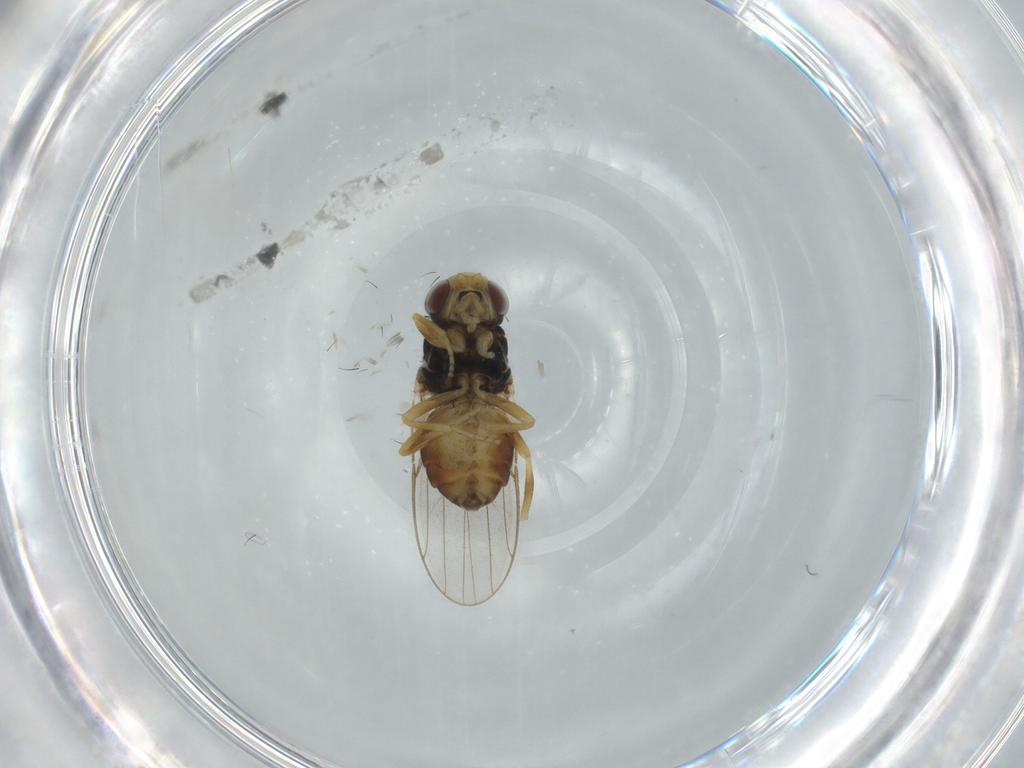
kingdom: Animalia
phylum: Arthropoda
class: Insecta
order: Diptera
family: Chloropidae
